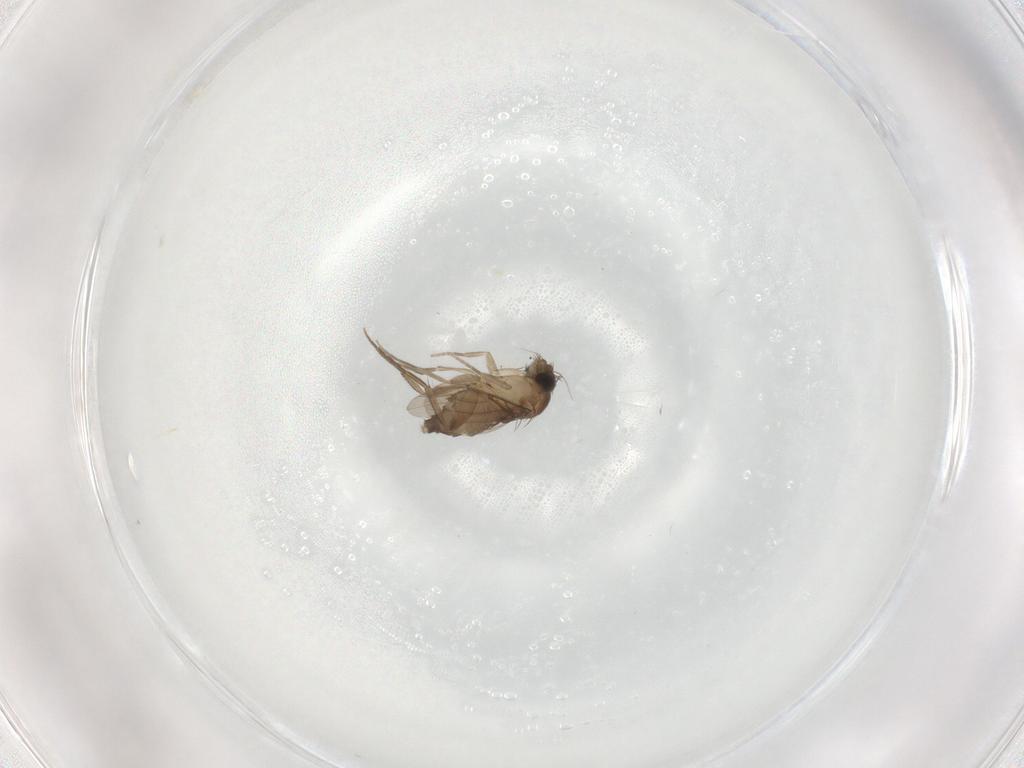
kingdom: Animalia
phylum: Arthropoda
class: Insecta
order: Diptera
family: Phoridae
